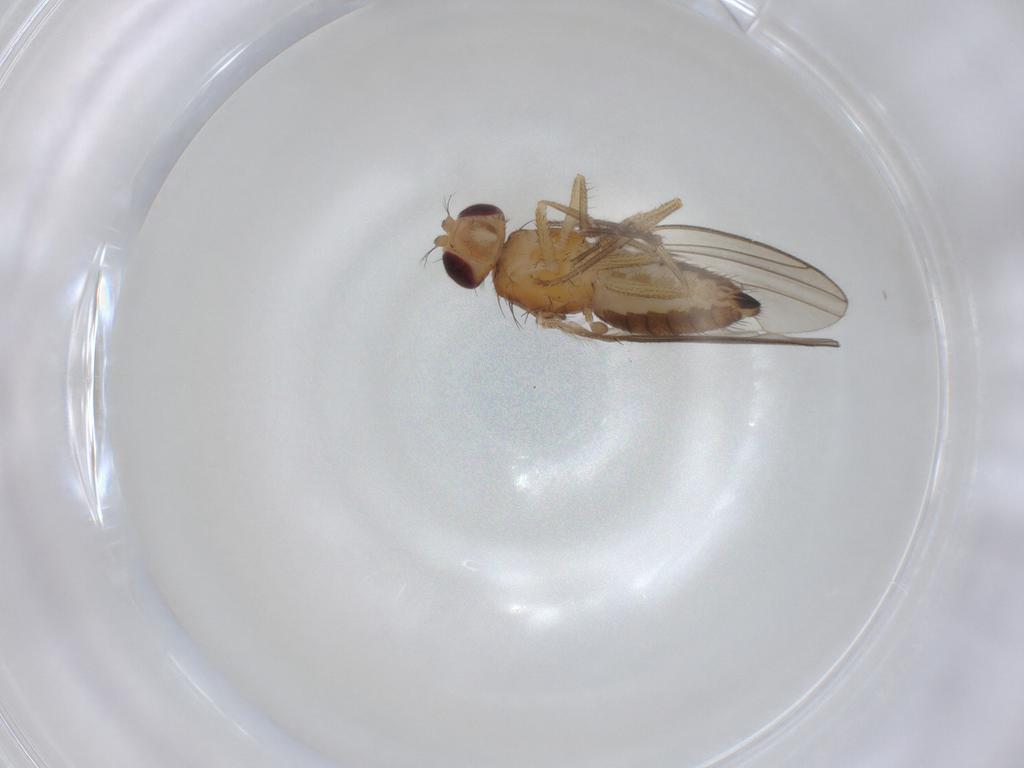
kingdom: Animalia
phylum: Arthropoda
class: Insecta
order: Diptera
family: Drosophilidae
